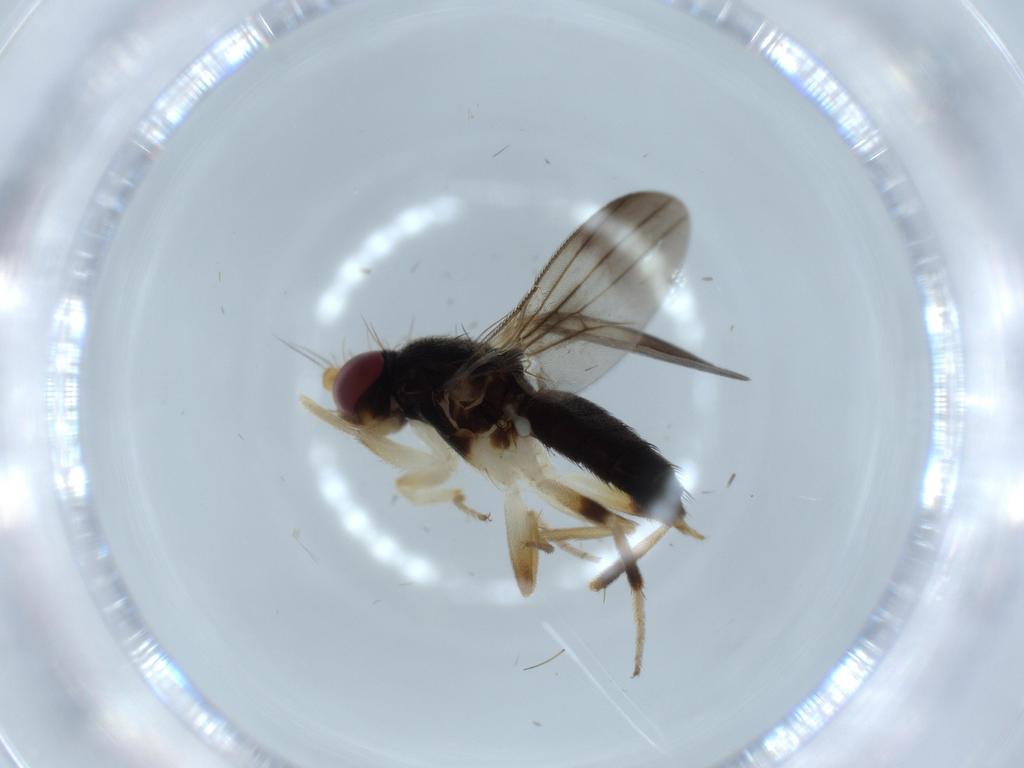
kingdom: Animalia
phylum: Arthropoda
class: Insecta
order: Diptera
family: Clusiidae
